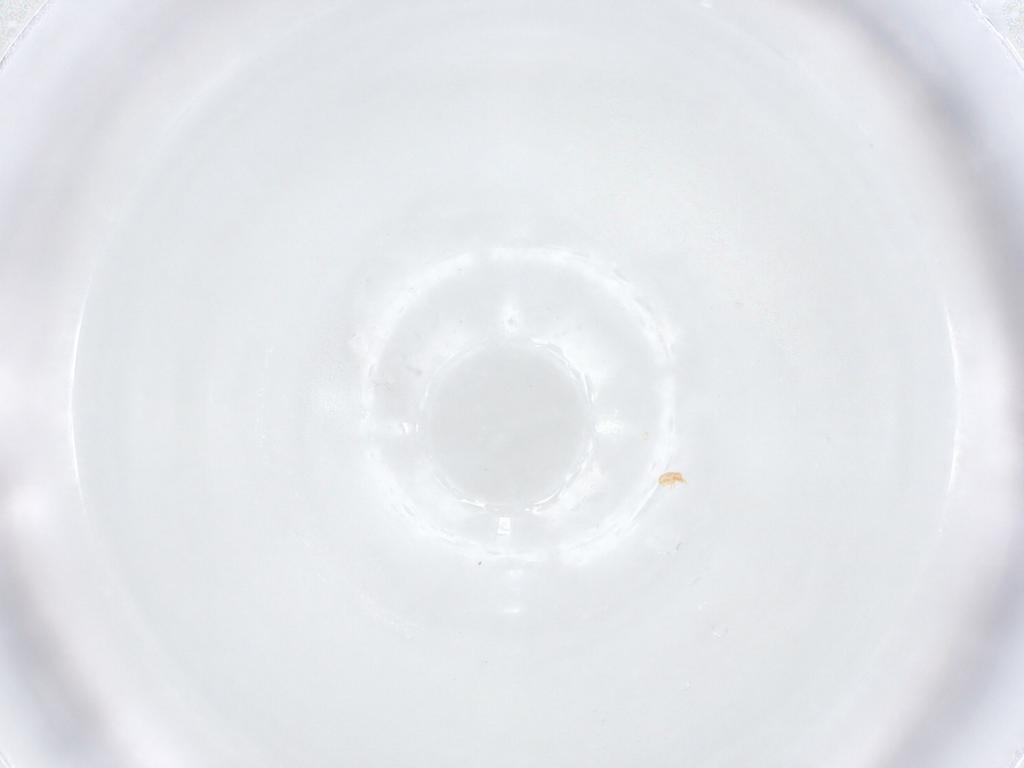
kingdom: Animalia
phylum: Arthropoda
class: Arachnida
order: Sarcoptiformes
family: Brachychthoniidae
